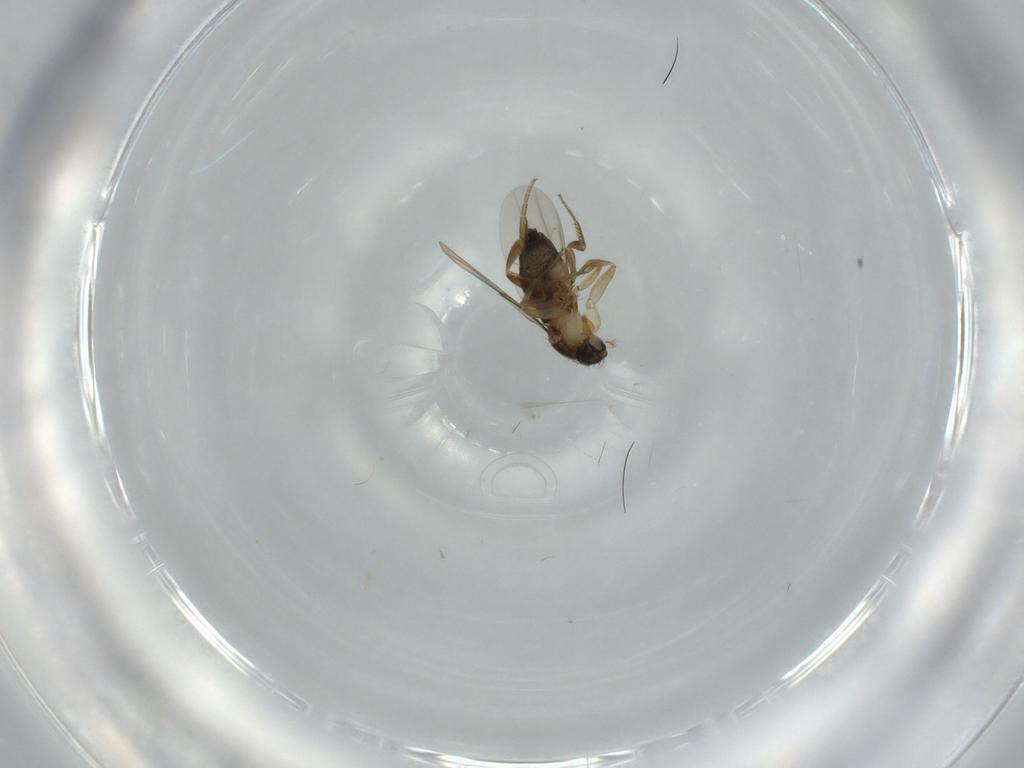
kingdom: Animalia
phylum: Arthropoda
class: Insecta
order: Diptera
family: Phoridae
